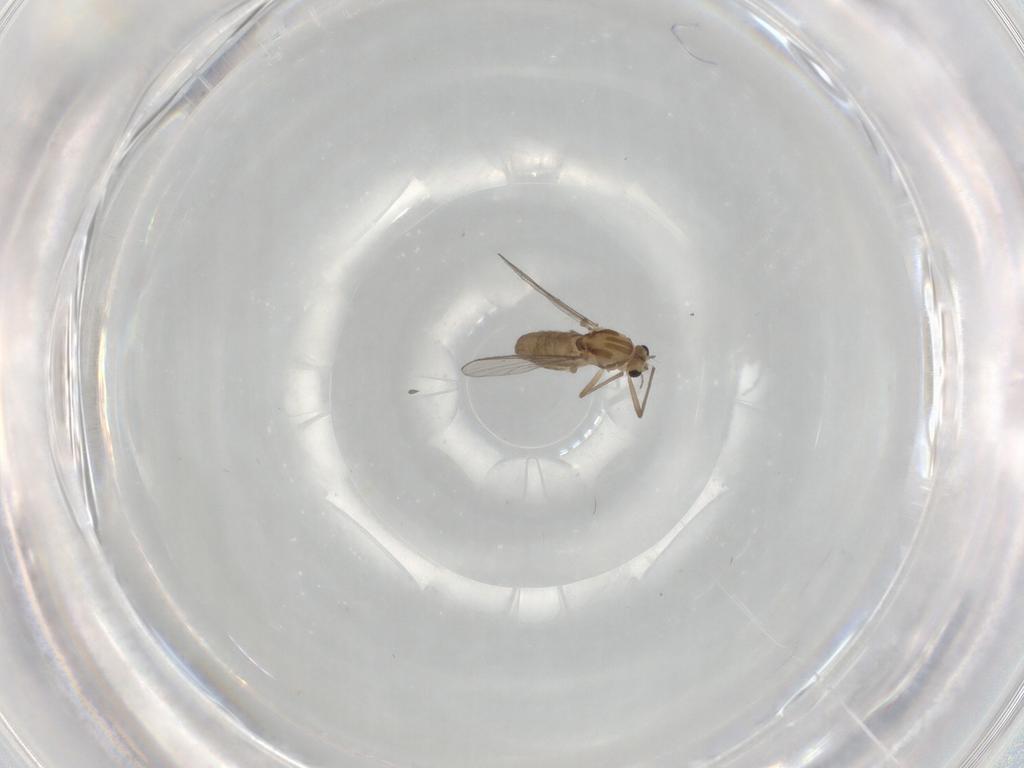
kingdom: Animalia
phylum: Arthropoda
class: Insecta
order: Diptera
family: Chironomidae
